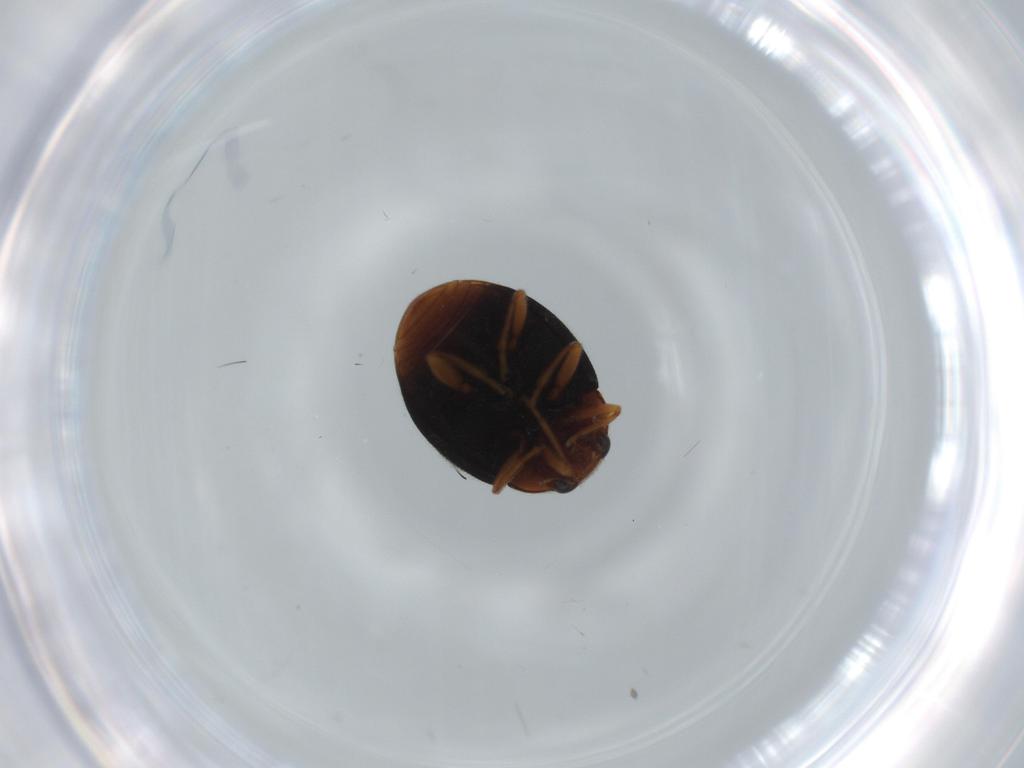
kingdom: Animalia
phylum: Arthropoda
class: Insecta
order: Coleoptera
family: Coccinellidae
